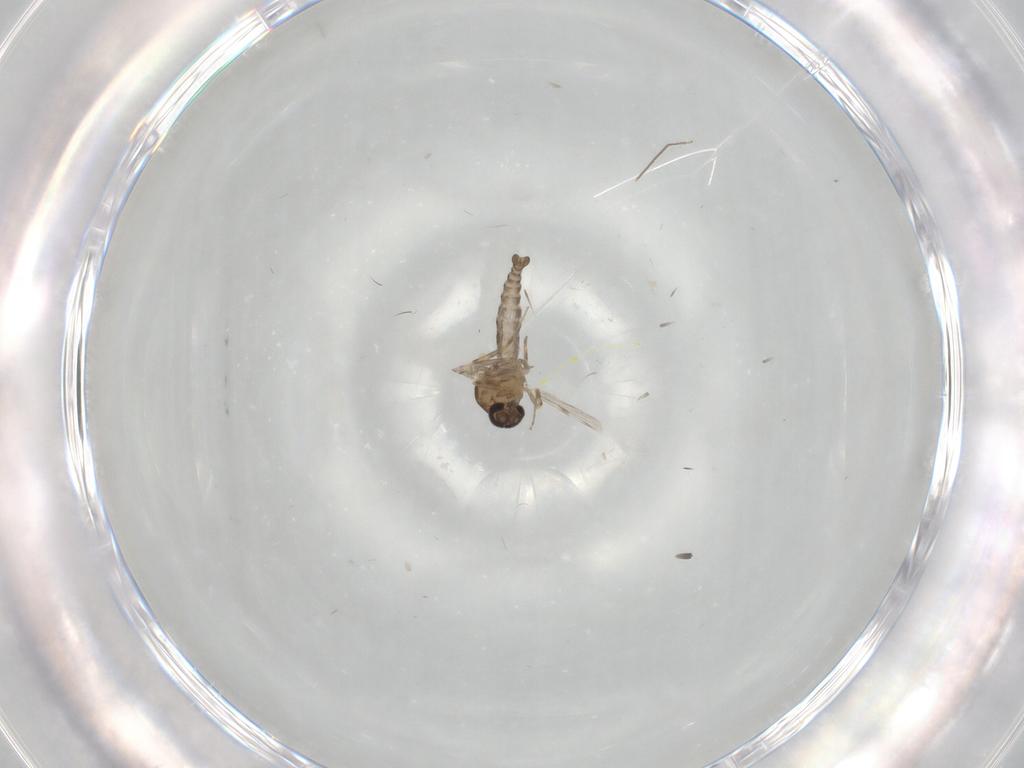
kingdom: Animalia
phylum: Arthropoda
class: Insecta
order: Diptera
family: Ceratopogonidae
